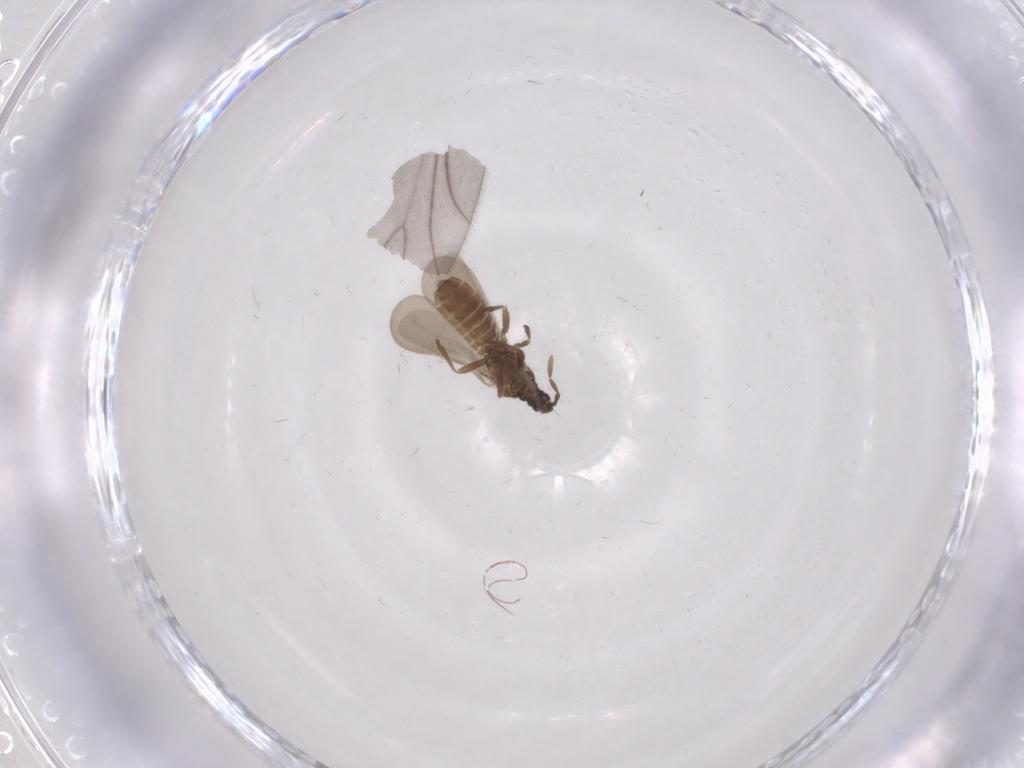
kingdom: Animalia
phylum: Arthropoda
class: Insecta
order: Hemiptera
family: Enicocephalidae
